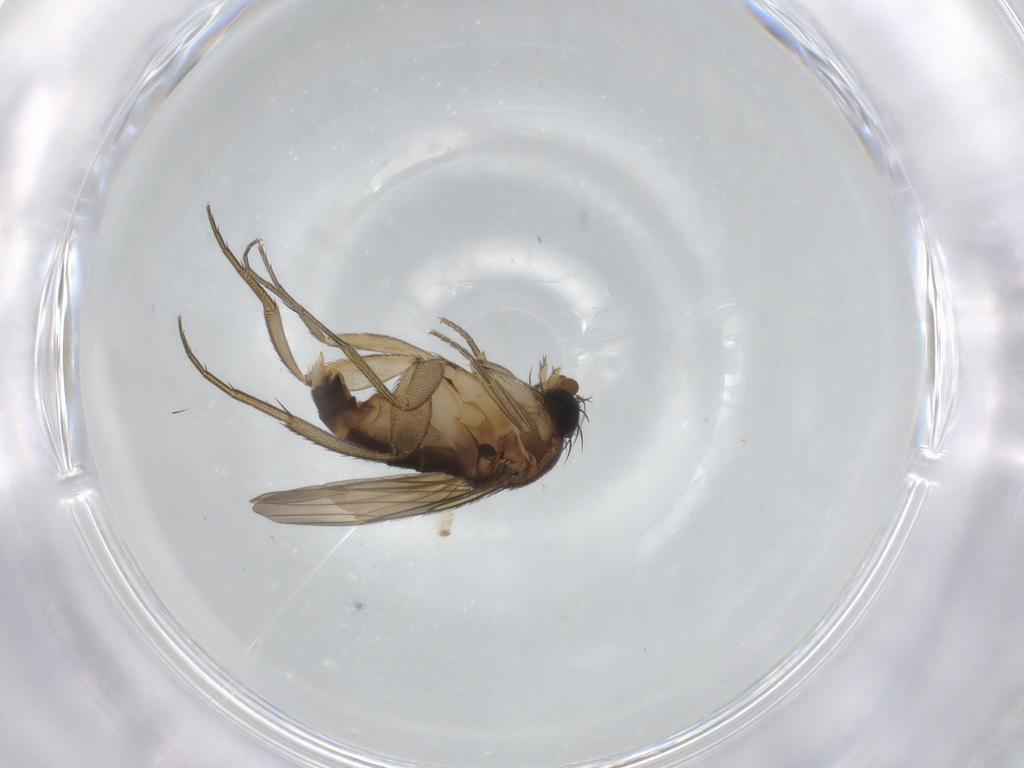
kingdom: Animalia
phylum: Arthropoda
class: Insecta
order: Diptera
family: Phoridae
